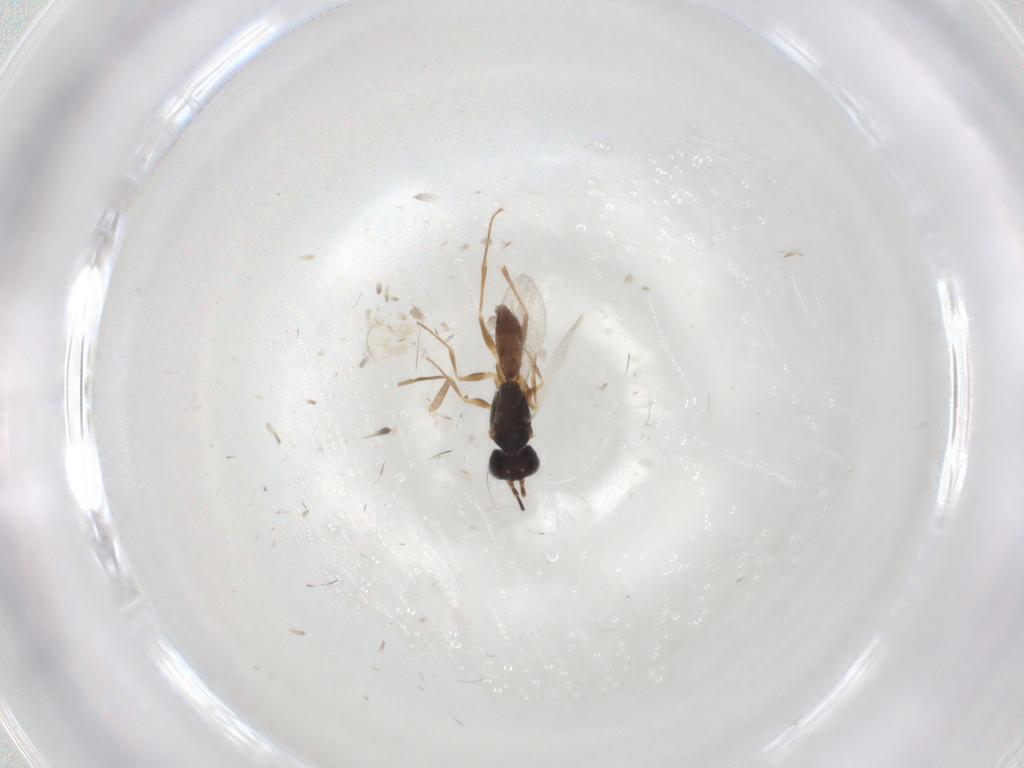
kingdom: Animalia
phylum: Arthropoda
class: Insecta
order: Hymenoptera
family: Dryinidae
